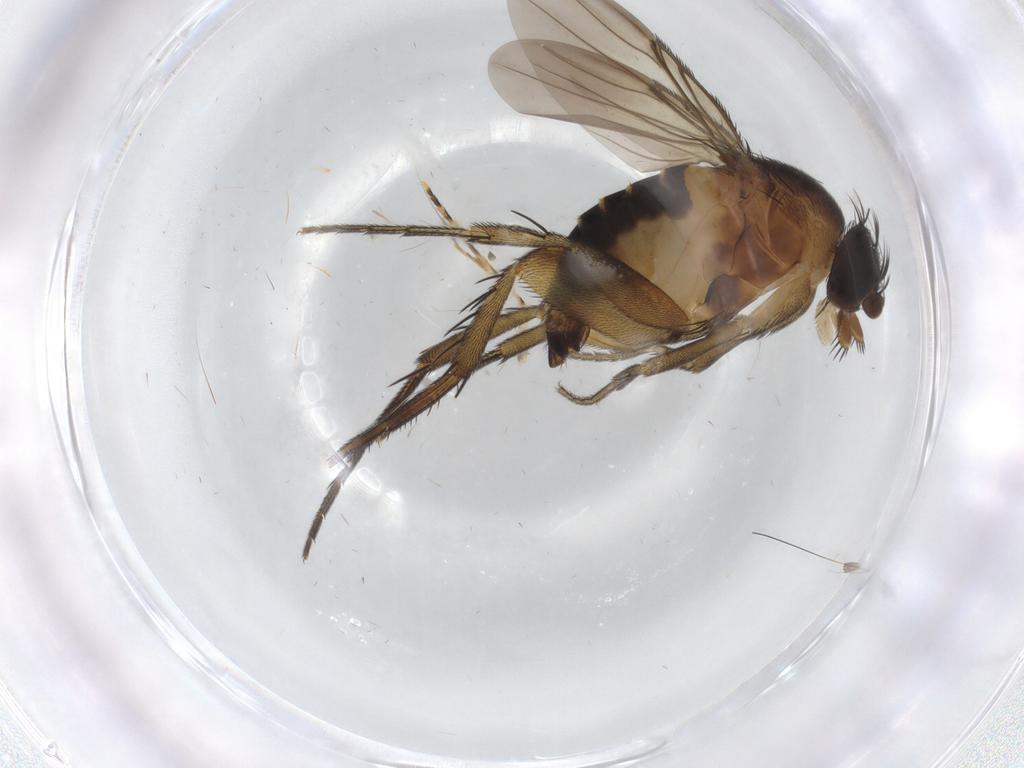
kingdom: Animalia
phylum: Arthropoda
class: Insecta
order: Diptera
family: Phoridae
